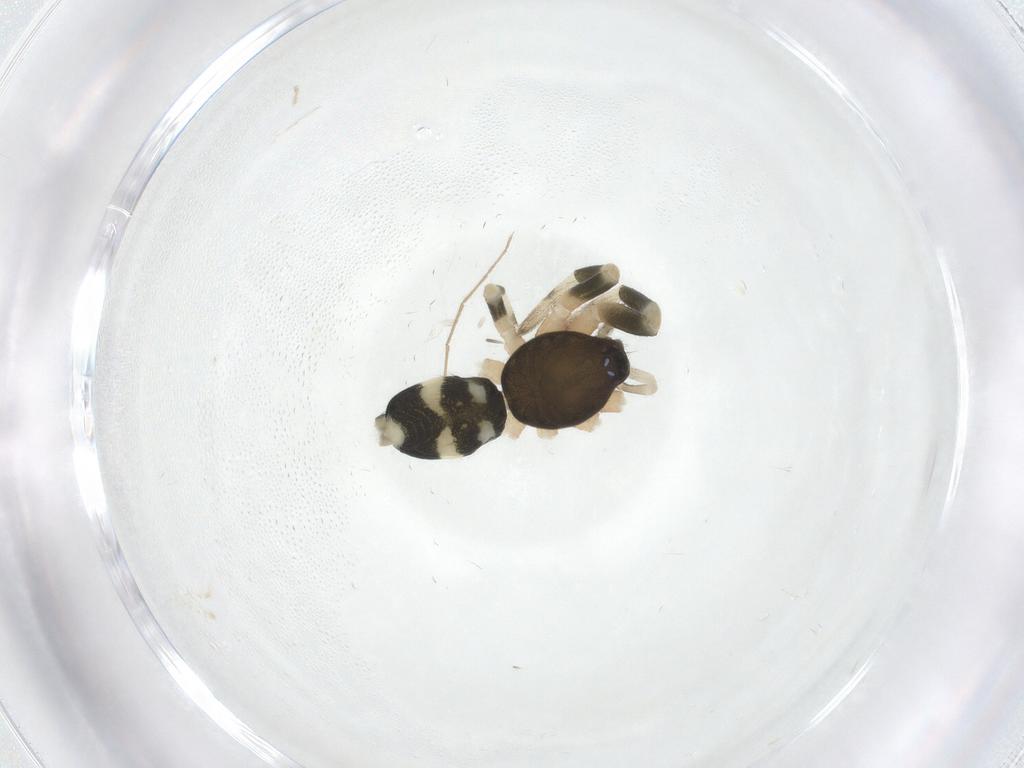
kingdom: Animalia
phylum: Arthropoda
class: Arachnida
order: Araneae
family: Lamponidae
